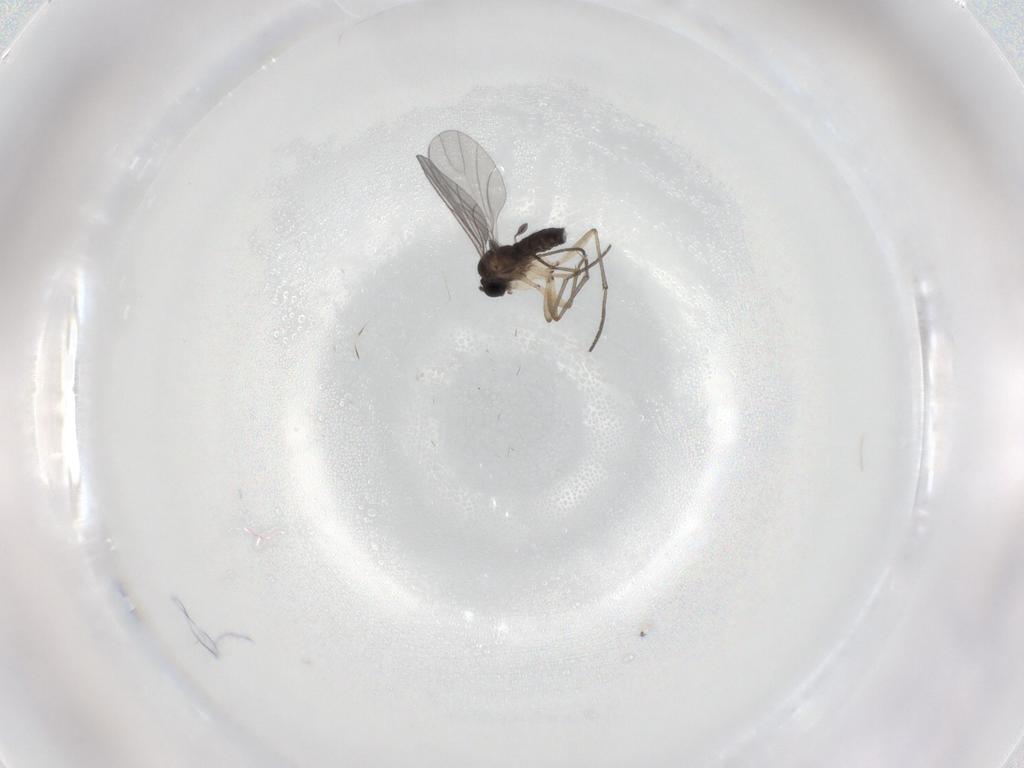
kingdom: Animalia
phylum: Arthropoda
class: Insecta
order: Diptera
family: Sciaridae
